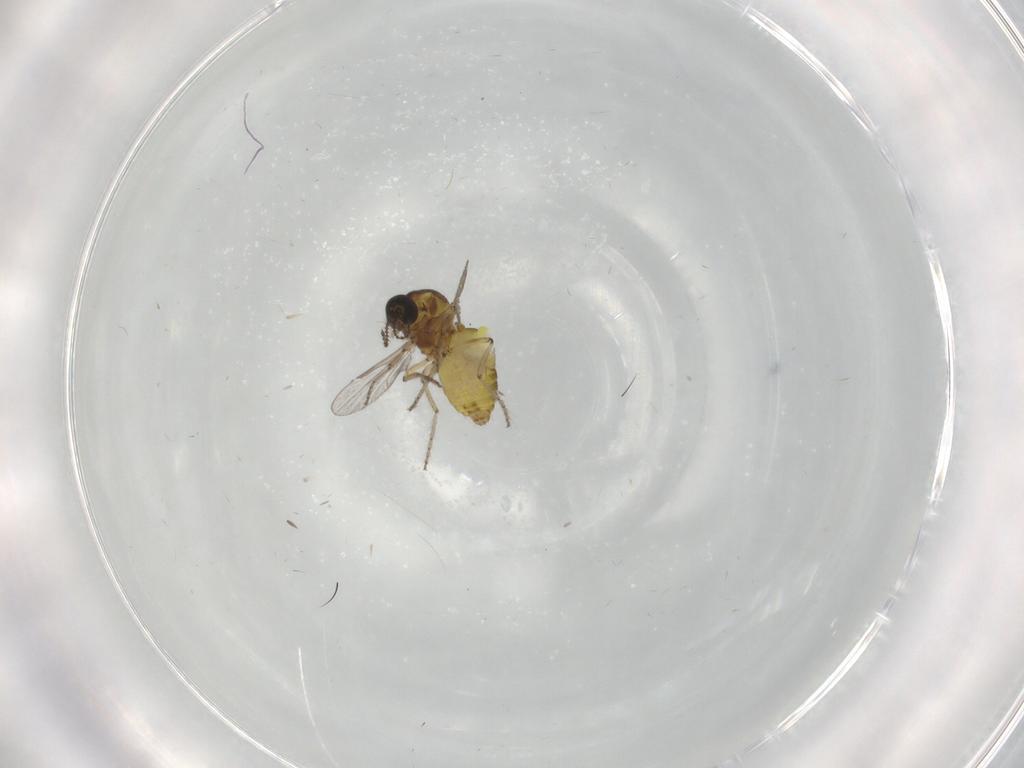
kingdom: Animalia
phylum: Arthropoda
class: Insecta
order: Diptera
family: Ceratopogonidae
